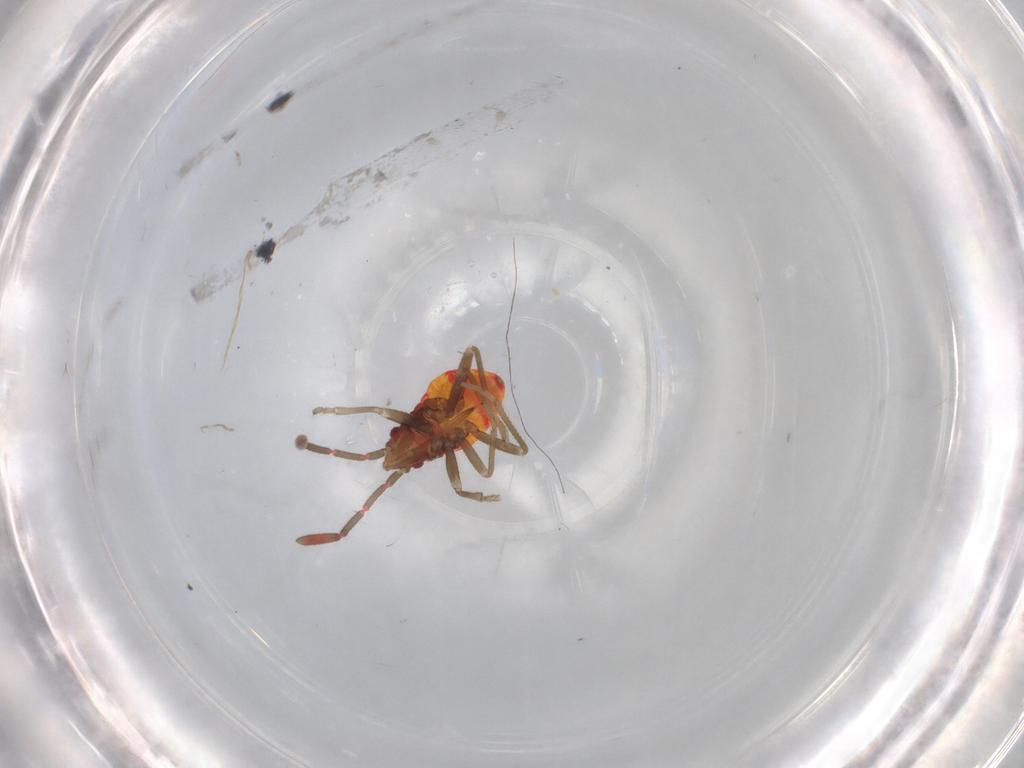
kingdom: Animalia
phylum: Arthropoda
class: Insecta
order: Hemiptera
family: Rhyparochromidae
